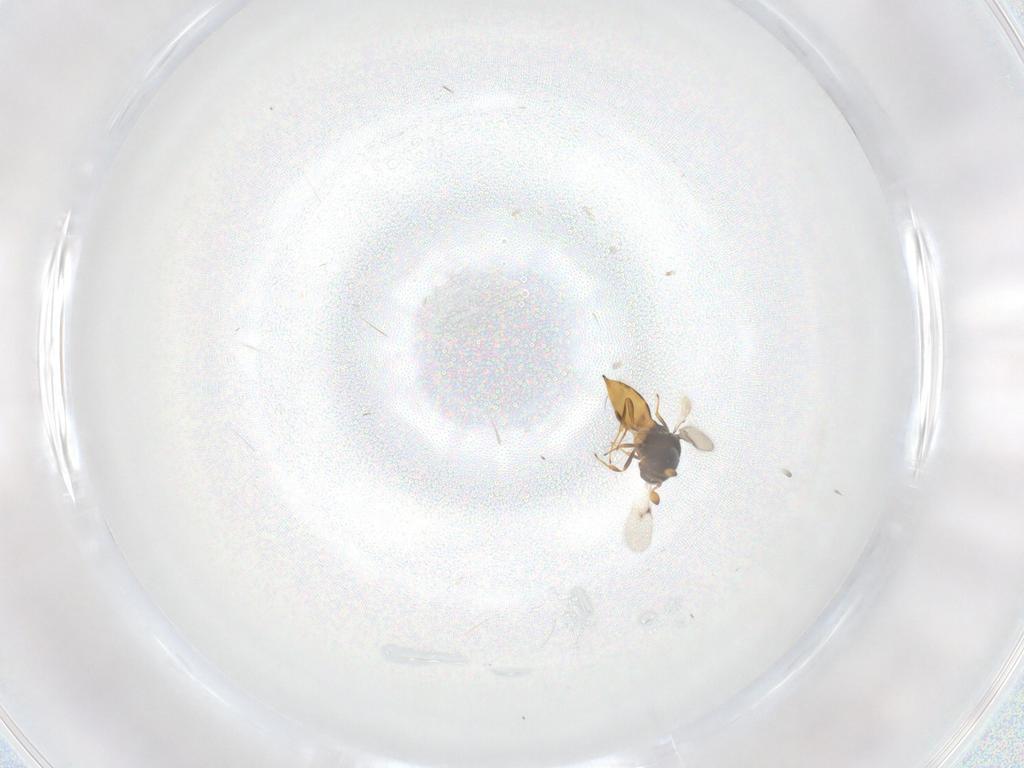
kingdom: Animalia
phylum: Arthropoda
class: Insecta
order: Hymenoptera
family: Scelionidae
